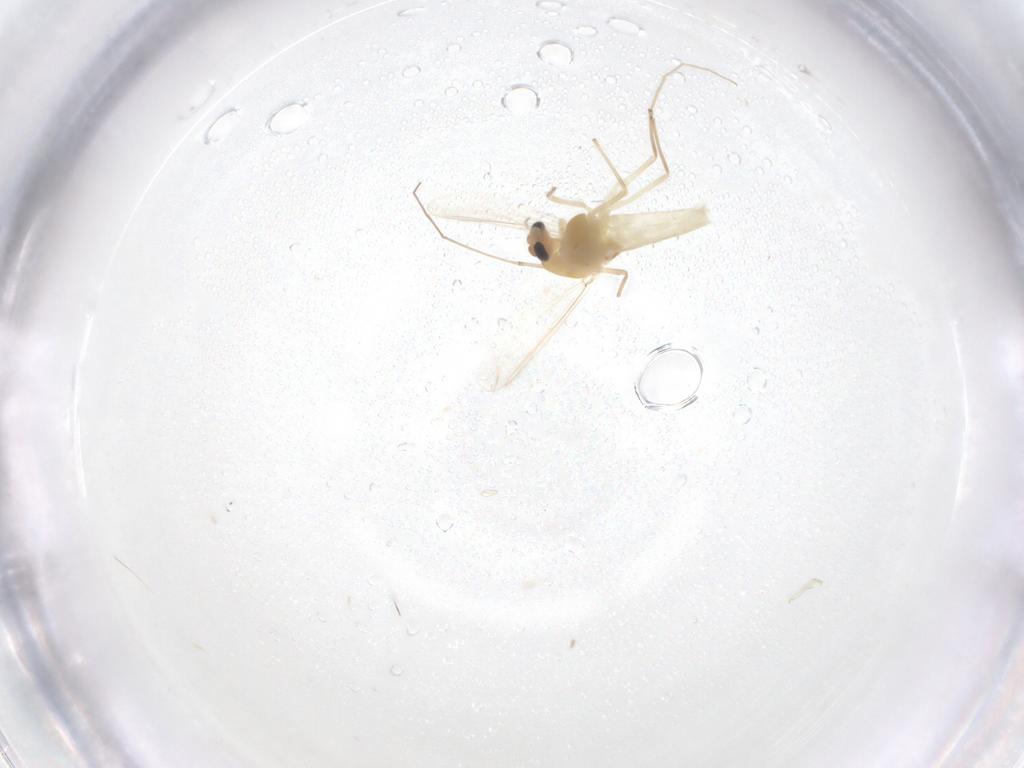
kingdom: Animalia
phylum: Arthropoda
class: Insecta
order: Diptera
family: Chironomidae
